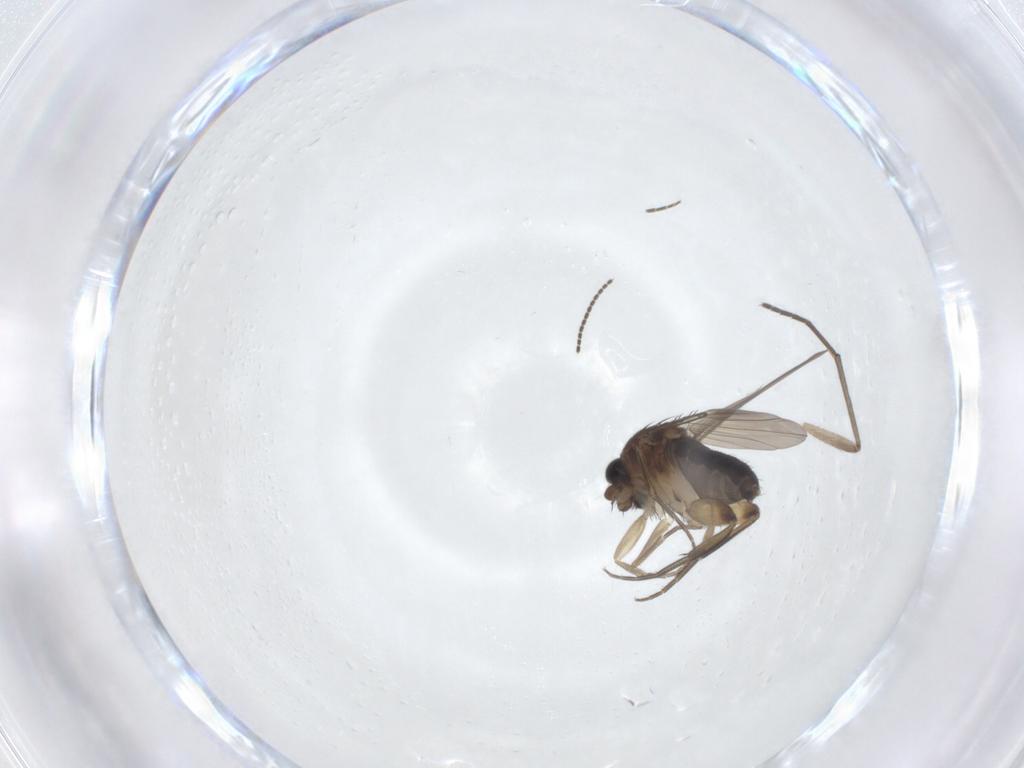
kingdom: Animalia
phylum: Arthropoda
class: Insecta
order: Diptera
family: Phoridae
